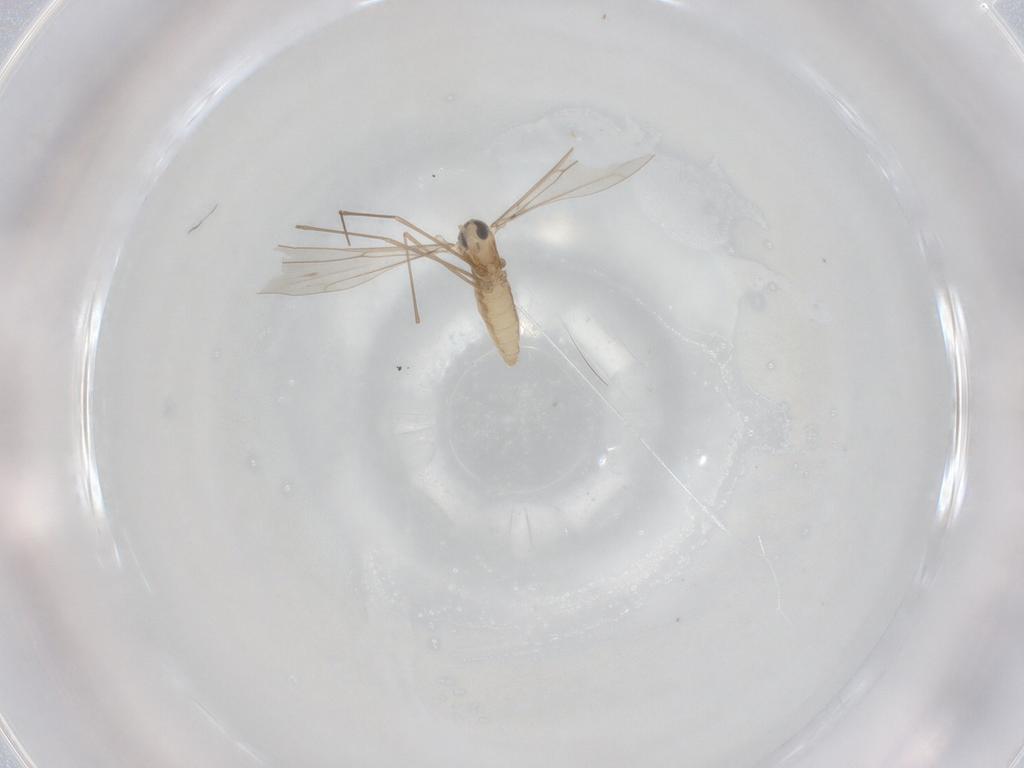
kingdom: Animalia
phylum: Arthropoda
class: Insecta
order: Diptera
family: Cecidomyiidae
